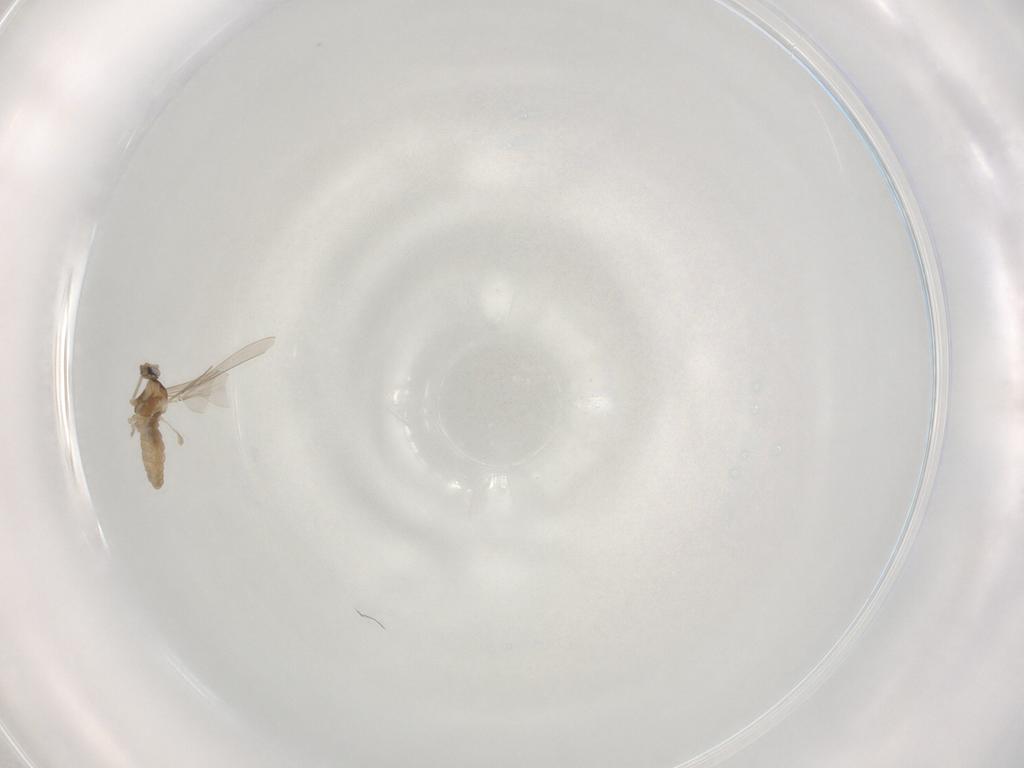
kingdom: Animalia
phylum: Arthropoda
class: Insecta
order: Diptera
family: Cecidomyiidae
